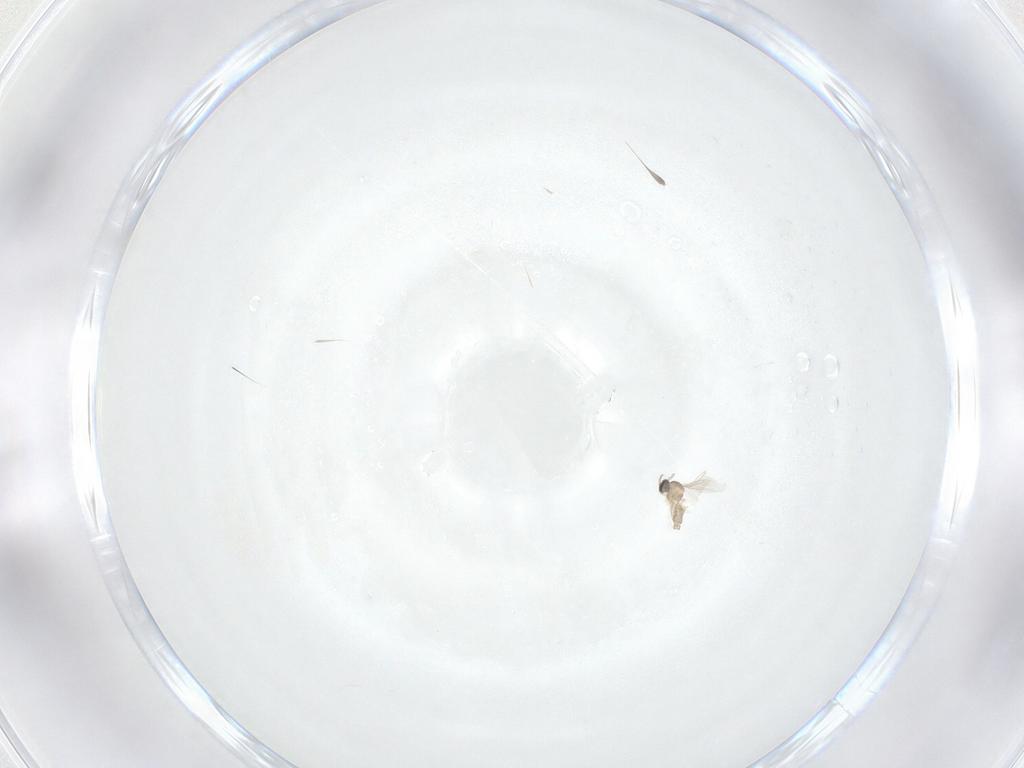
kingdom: Animalia
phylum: Arthropoda
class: Insecta
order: Diptera
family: Cecidomyiidae
